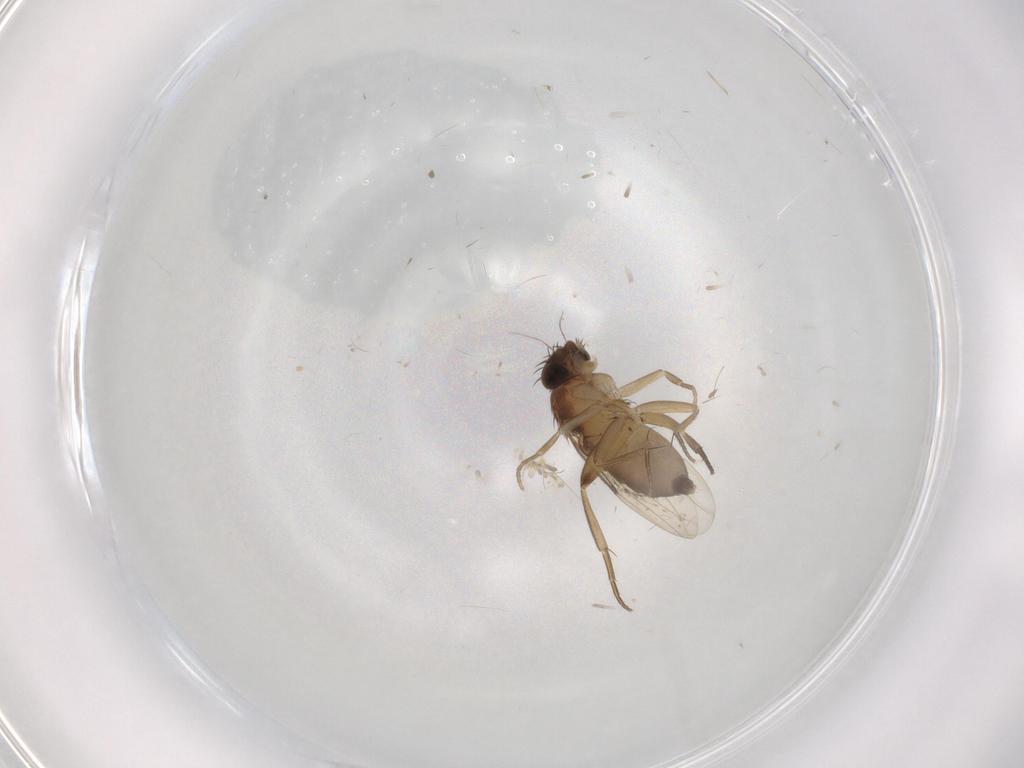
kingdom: Animalia
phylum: Arthropoda
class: Insecta
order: Diptera
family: Phoridae
